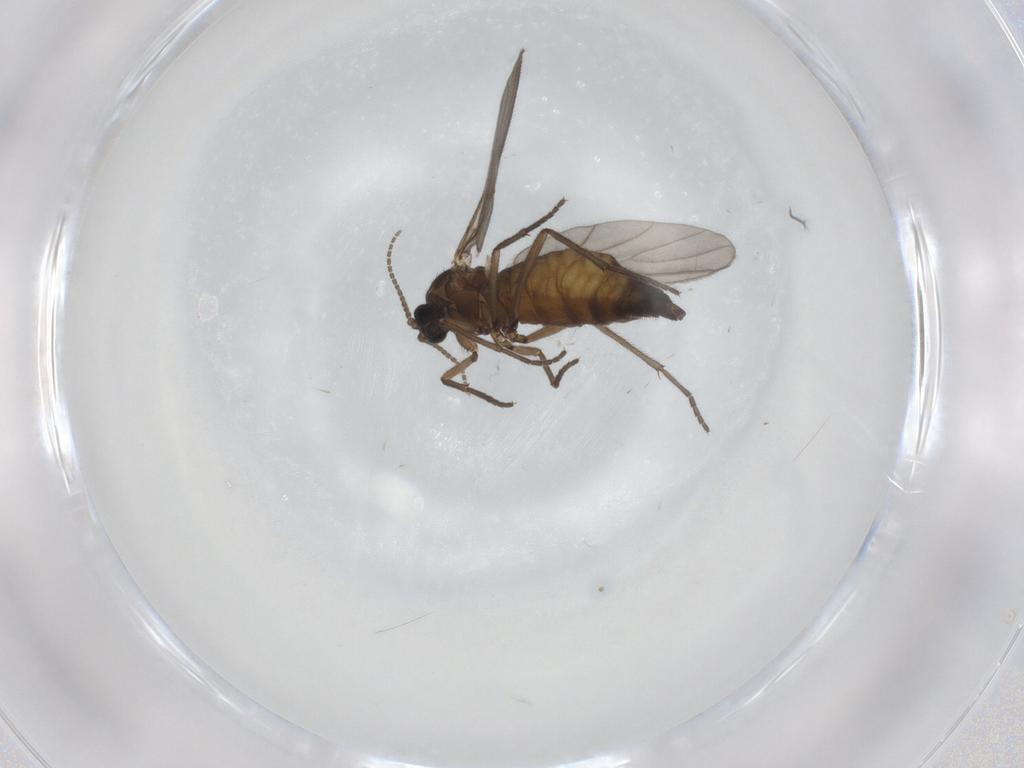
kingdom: Animalia
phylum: Arthropoda
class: Insecta
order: Diptera
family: Sciaridae
